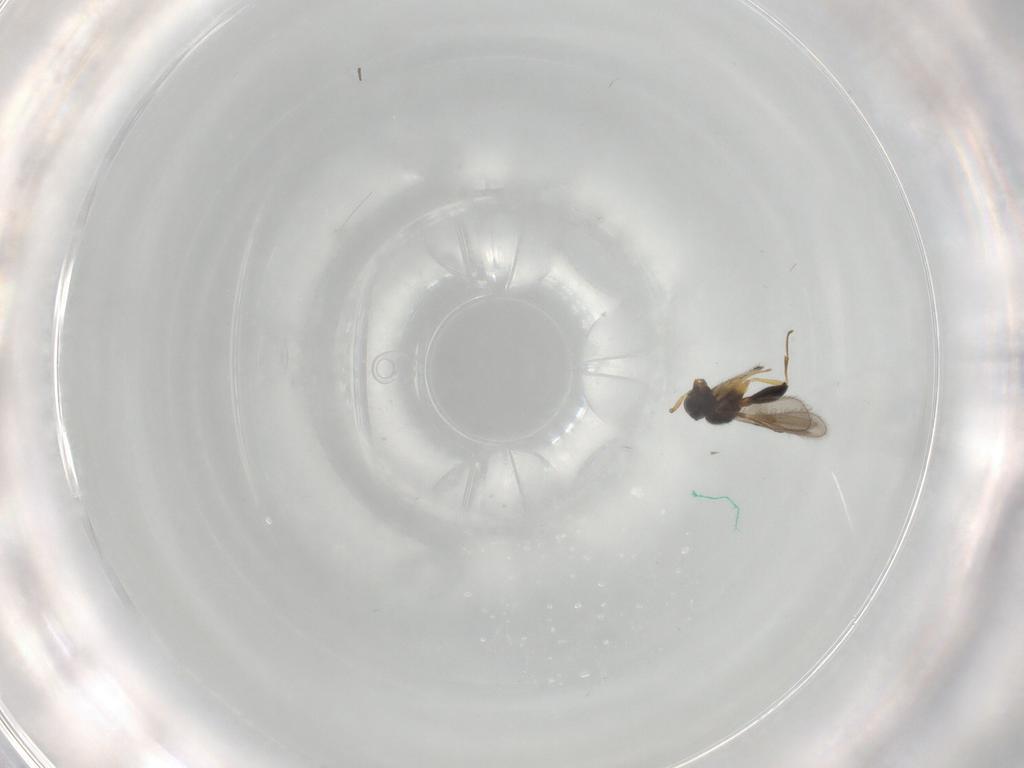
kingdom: Animalia
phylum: Arthropoda
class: Insecta
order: Hymenoptera
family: Scelionidae
